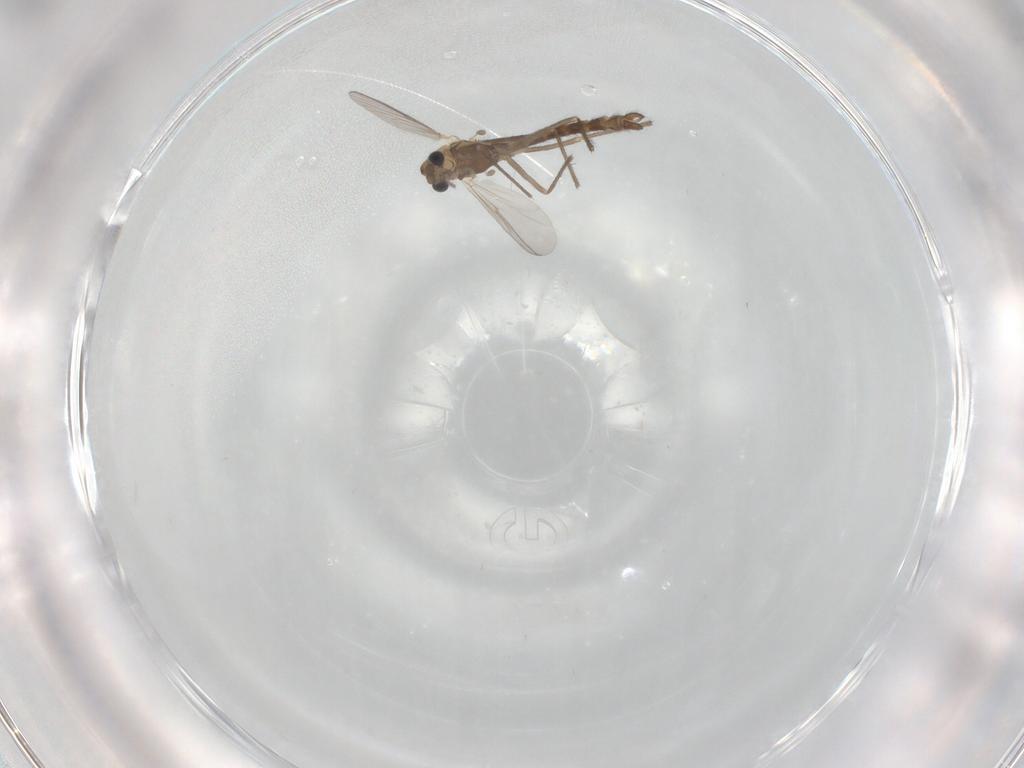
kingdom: Animalia
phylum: Arthropoda
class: Insecta
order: Diptera
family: Chironomidae
